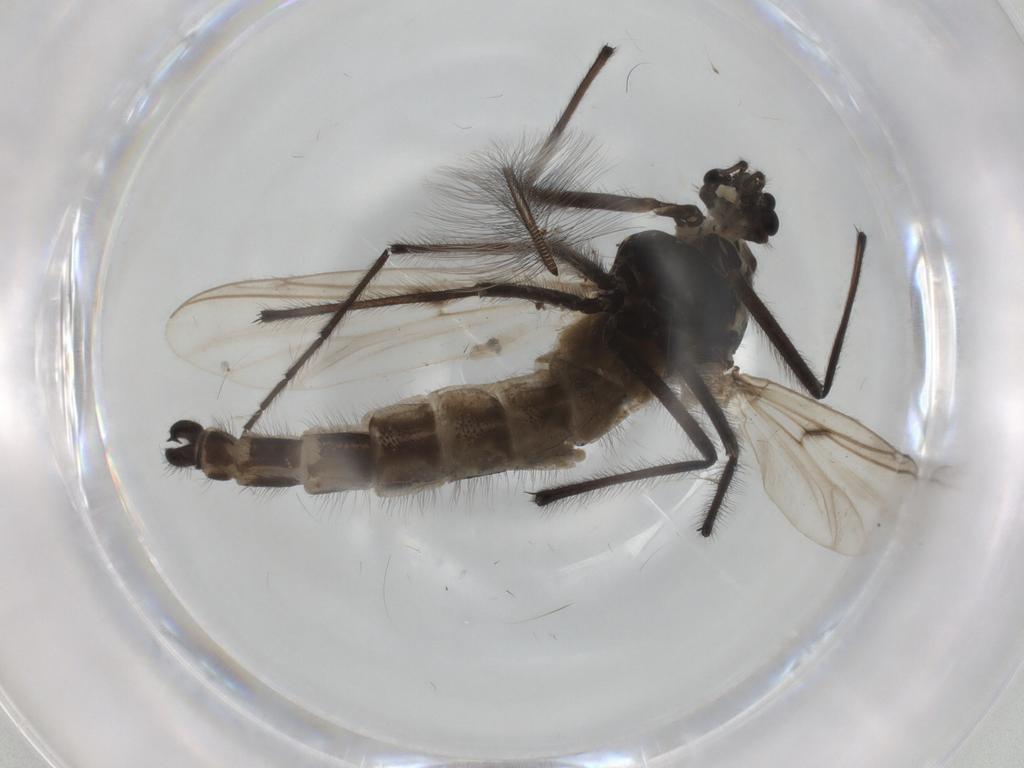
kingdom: Animalia
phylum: Arthropoda
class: Insecta
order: Diptera
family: Chironomidae
